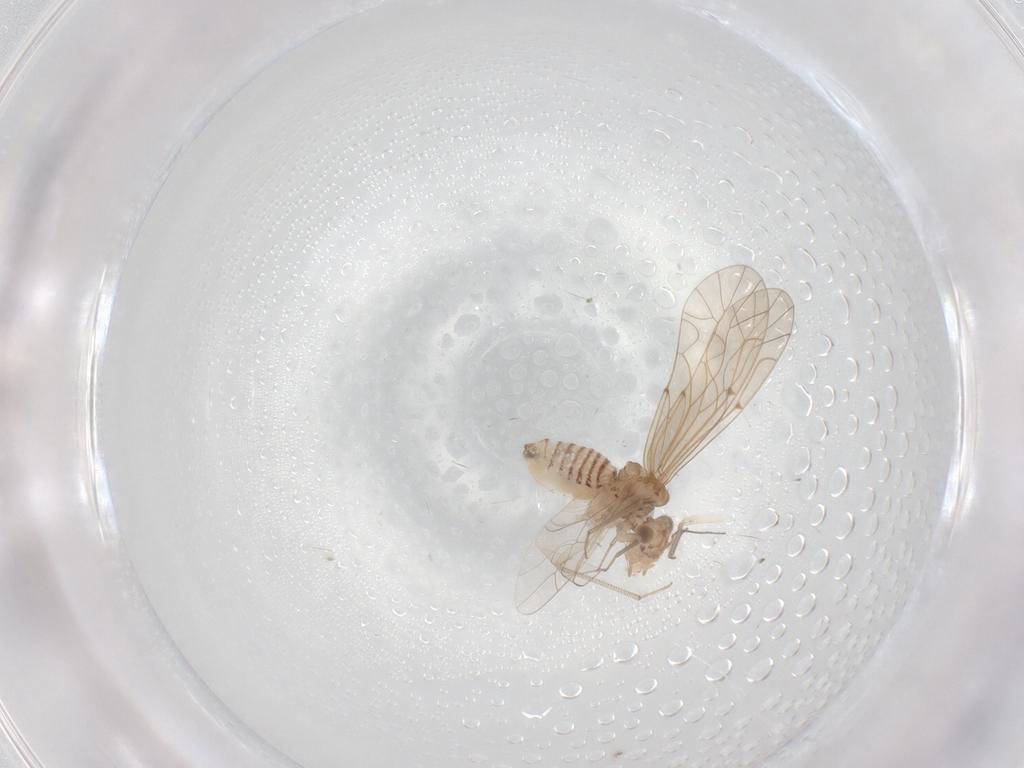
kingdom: Animalia
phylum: Arthropoda
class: Insecta
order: Psocodea
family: Lachesillidae
